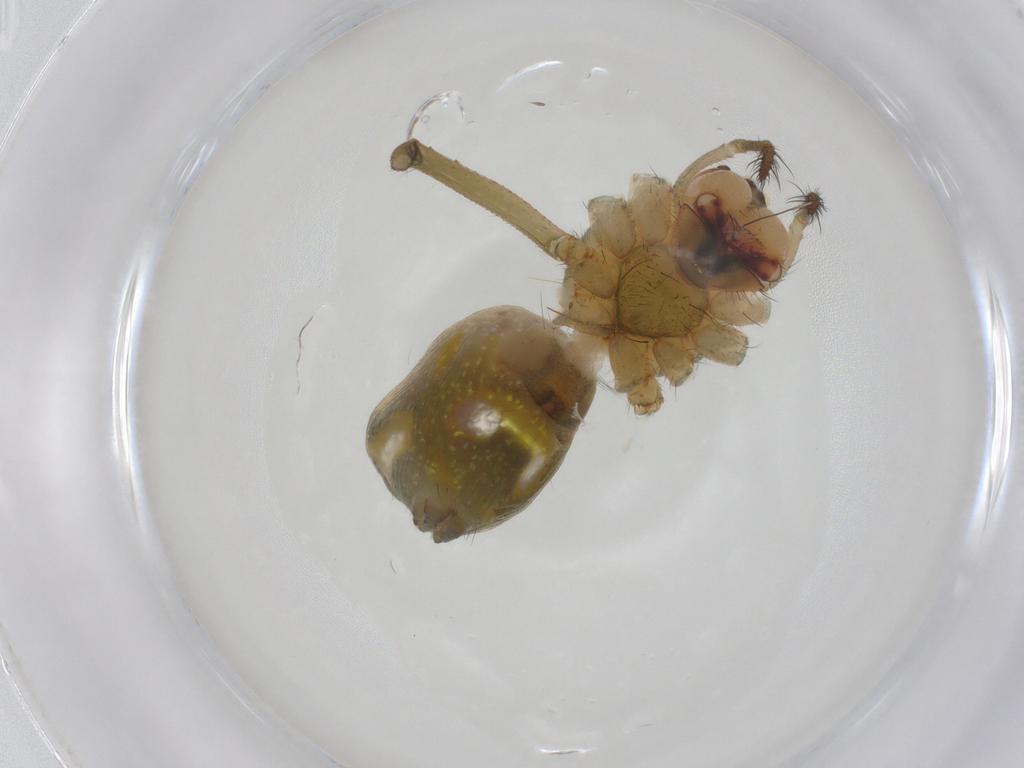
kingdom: Animalia
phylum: Arthropoda
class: Arachnida
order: Araneae
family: Tetragnathidae
